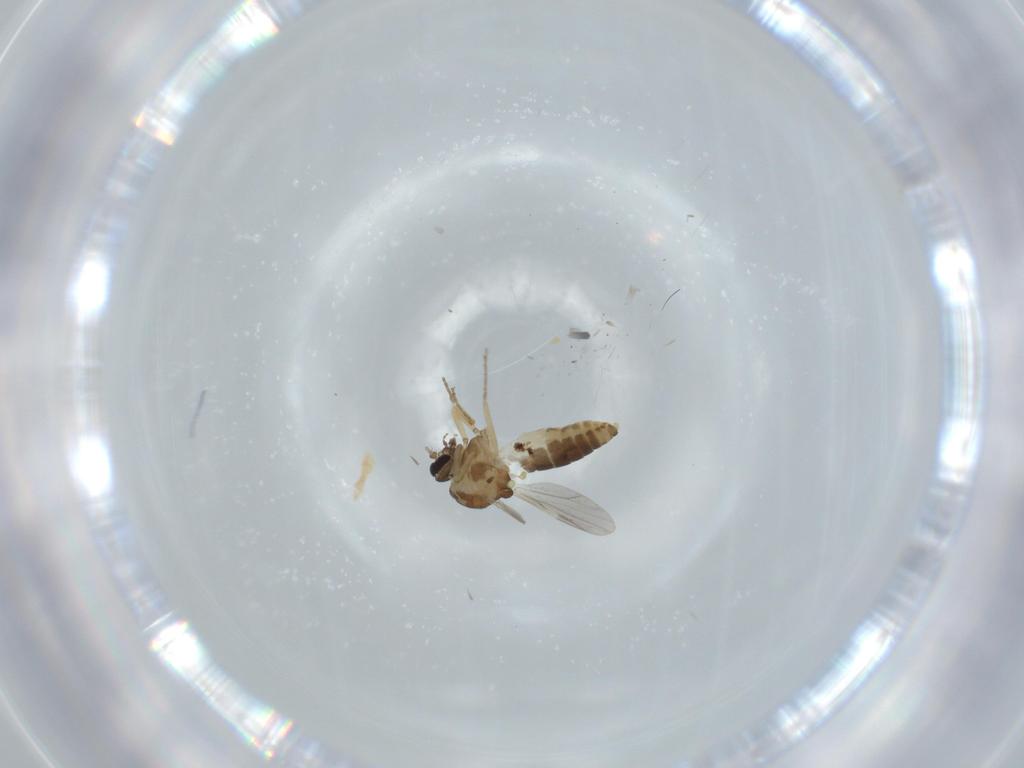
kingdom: Animalia
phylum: Arthropoda
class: Insecta
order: Diptera
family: Ceratopogonidae
